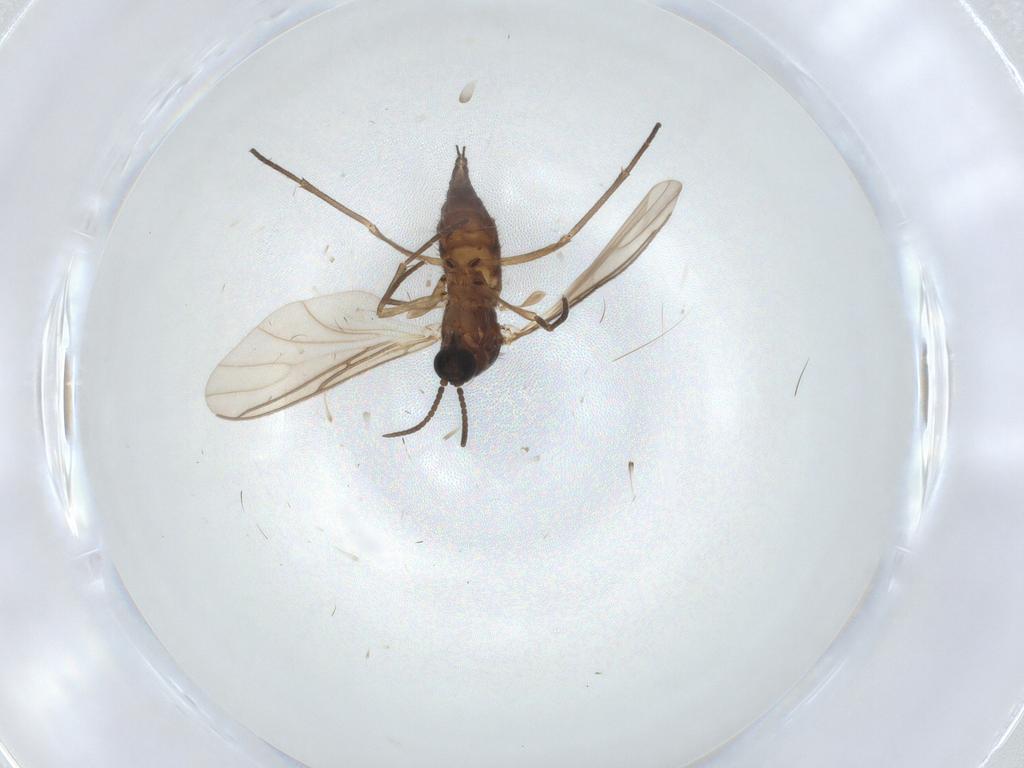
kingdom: Animalia
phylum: Arthropoda
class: Insecta
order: Diptera
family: Sciaridae
